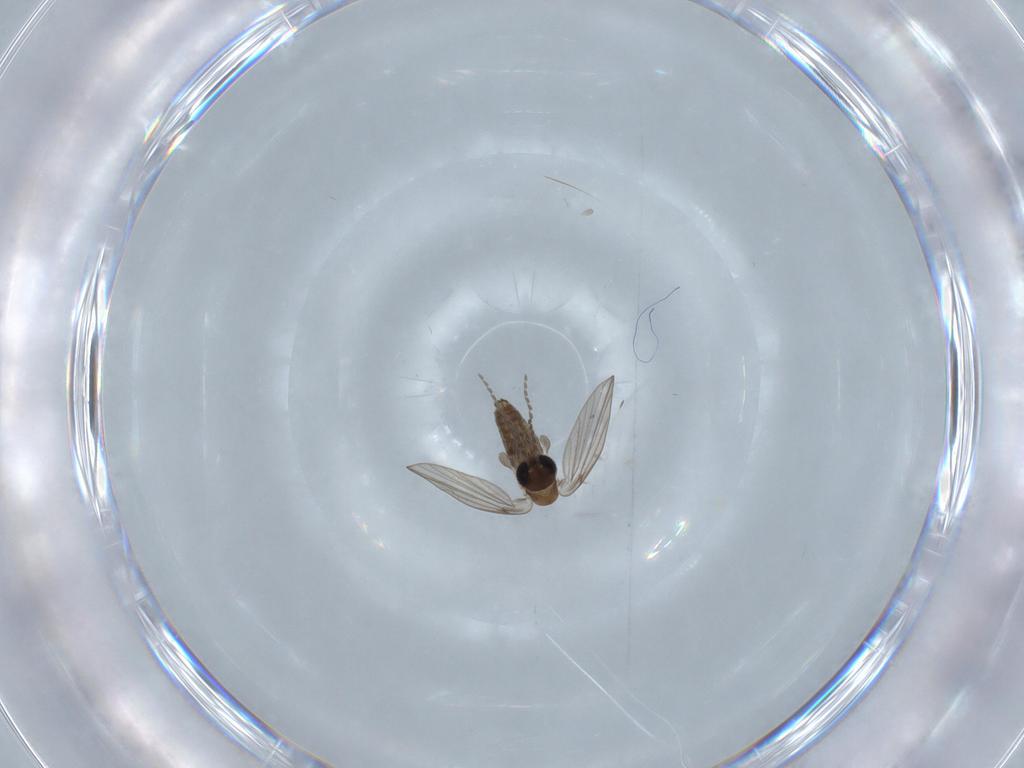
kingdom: Animalia
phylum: Arthropoda
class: Insecta
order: Diptera
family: Psychodidae
